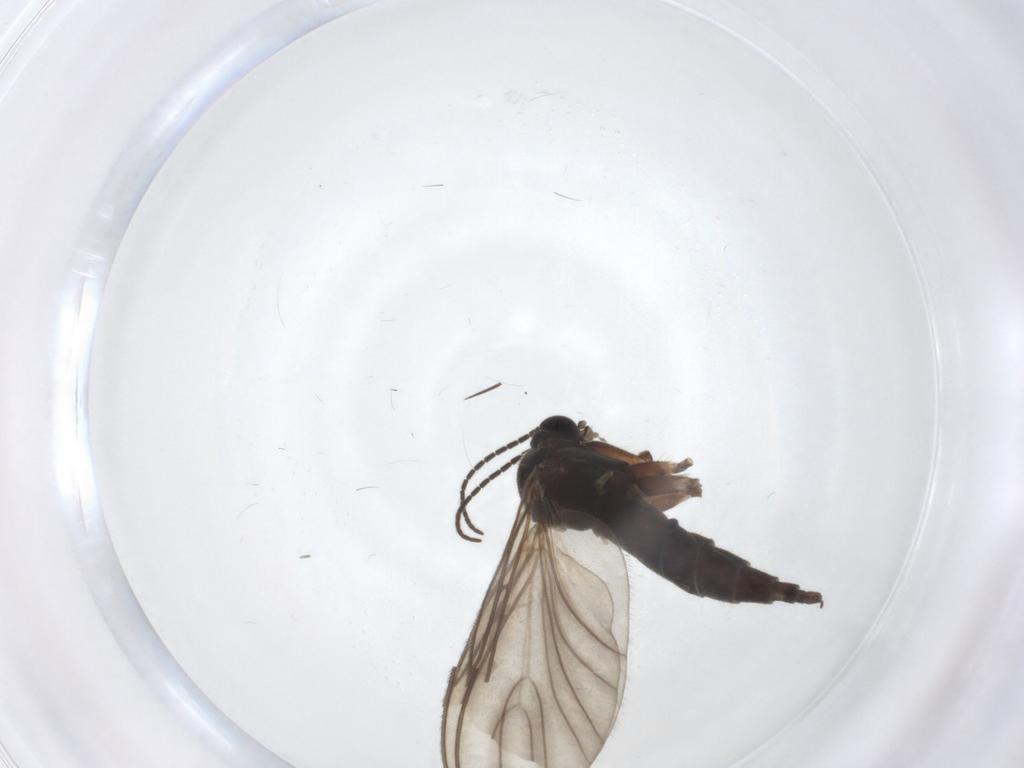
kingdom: Animalia
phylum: Arthropoda
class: Insecta
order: Diptera
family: Sciaridae
